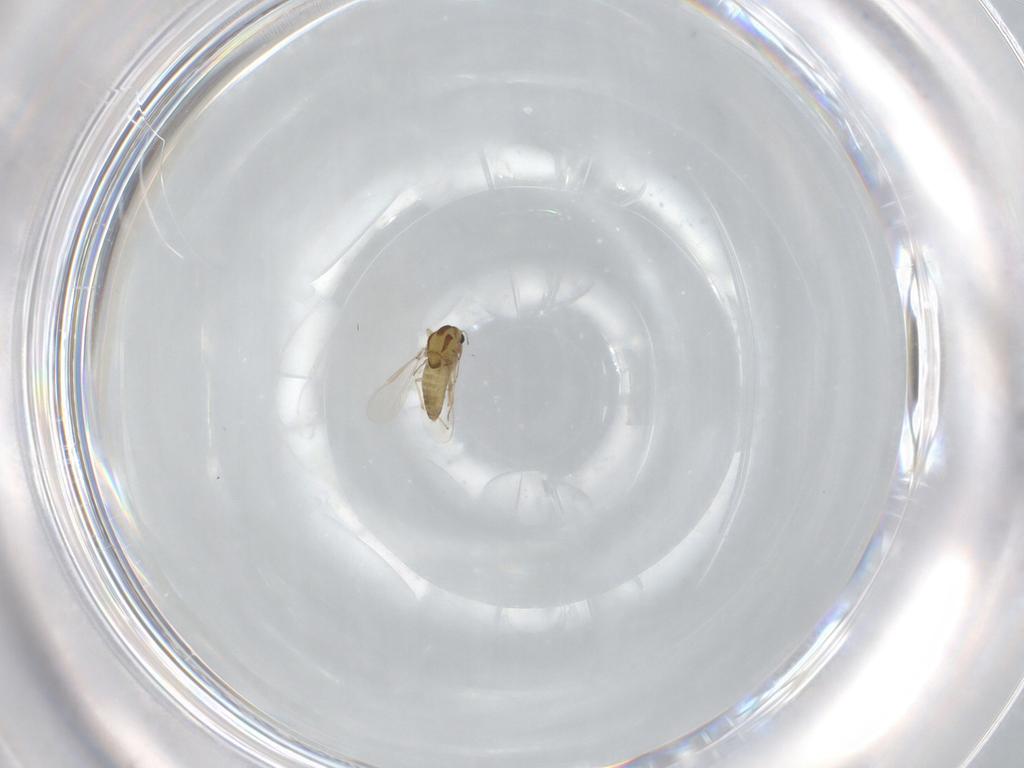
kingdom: Animalia
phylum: Arthropoda
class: Insecta
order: Diptera
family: Chironomidae
